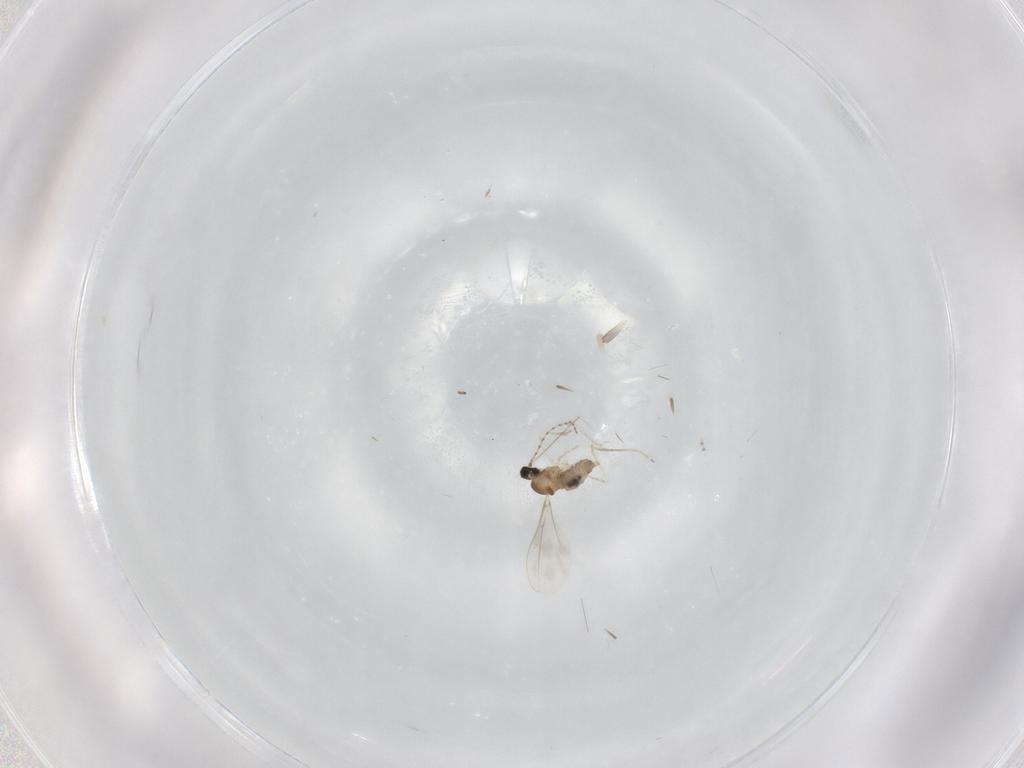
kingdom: Animalia
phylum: Arthropoda
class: Insecta
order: Diptera
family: Cecidomyiidae
